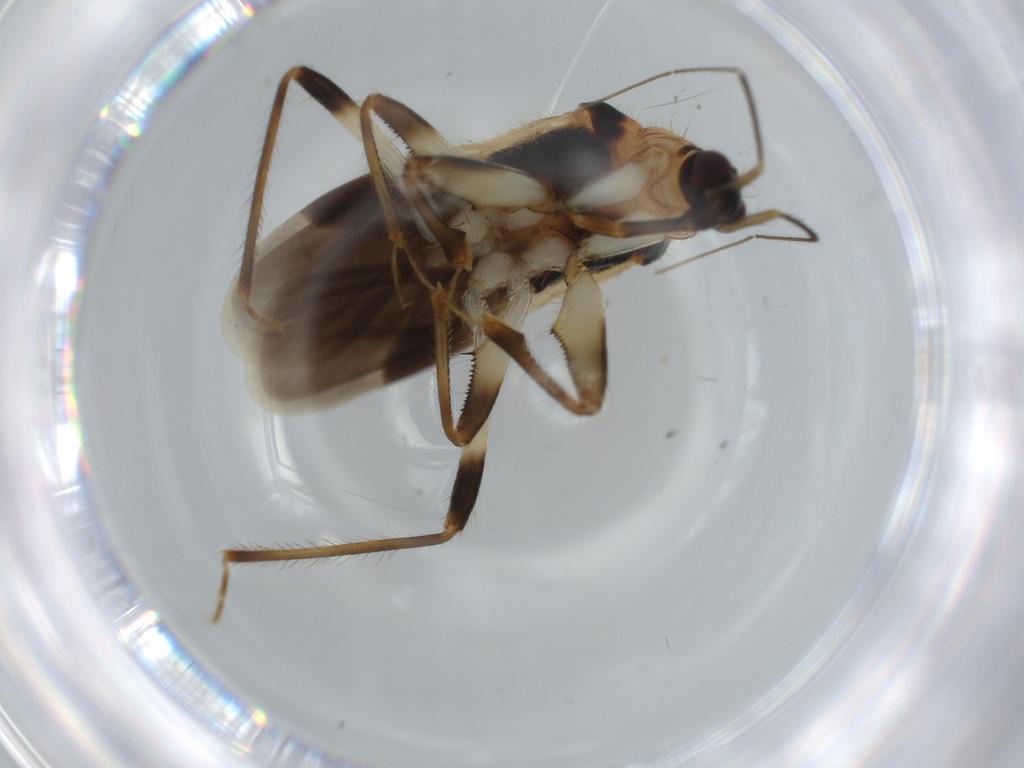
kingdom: Animalia
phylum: Arthropoda
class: Insecta
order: Hemiptera
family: Nabidae
